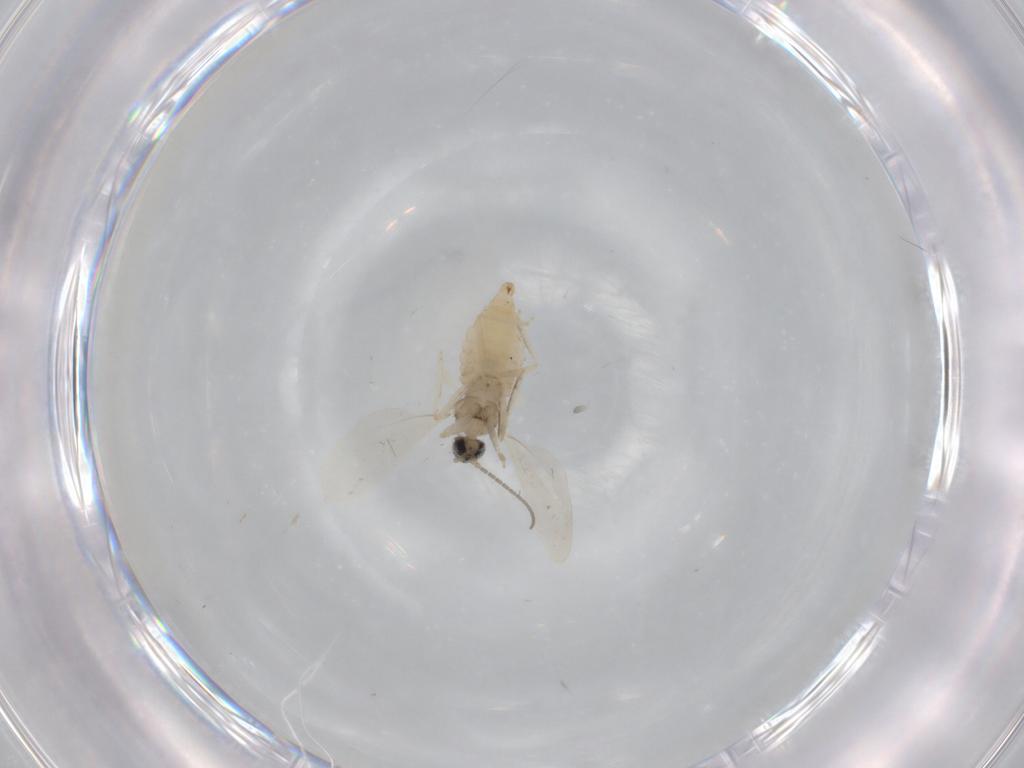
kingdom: Animalia
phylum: Arthropoda
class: Insecta
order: Diptera
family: Cecidomyiidae
